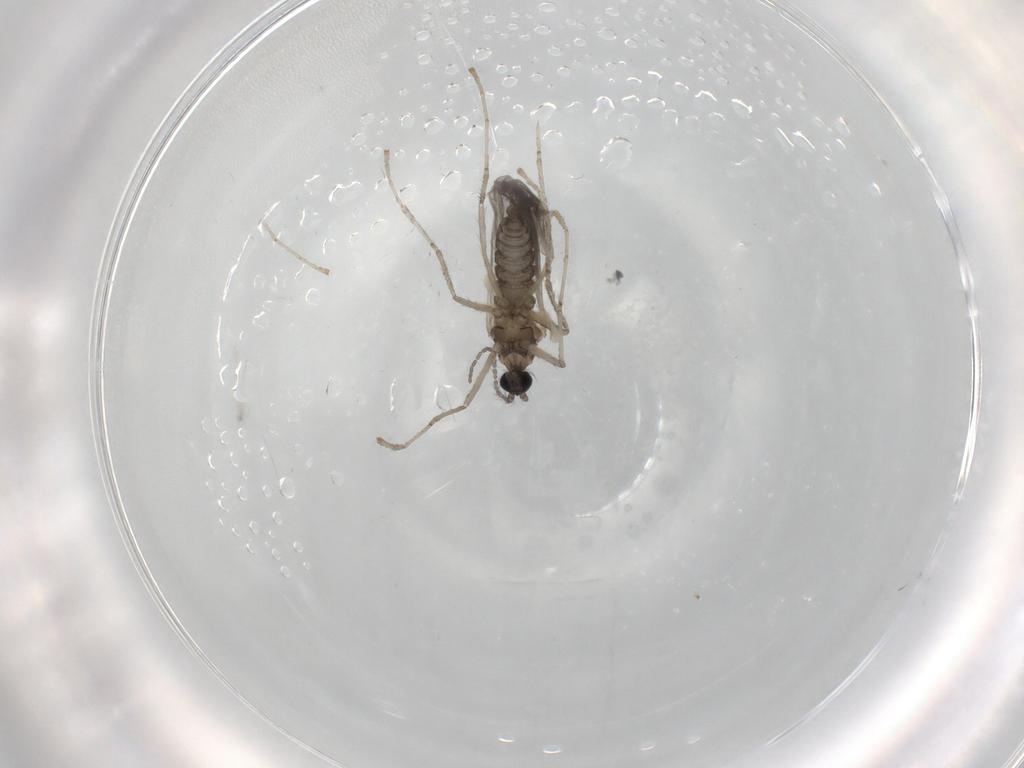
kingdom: Animalia
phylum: Arthropoda
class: Insecta
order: Diptera
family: Cecidomyiidae
